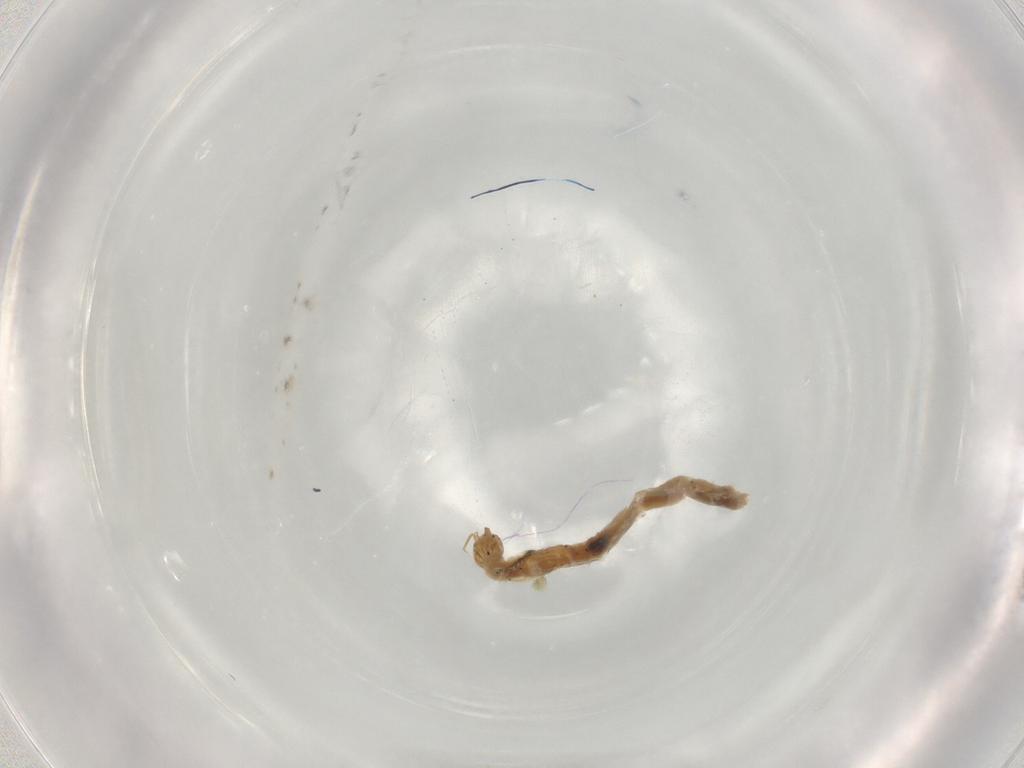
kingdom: Animalia
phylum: Arthropoda
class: Insecta
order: Diptera
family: Chironomidae
